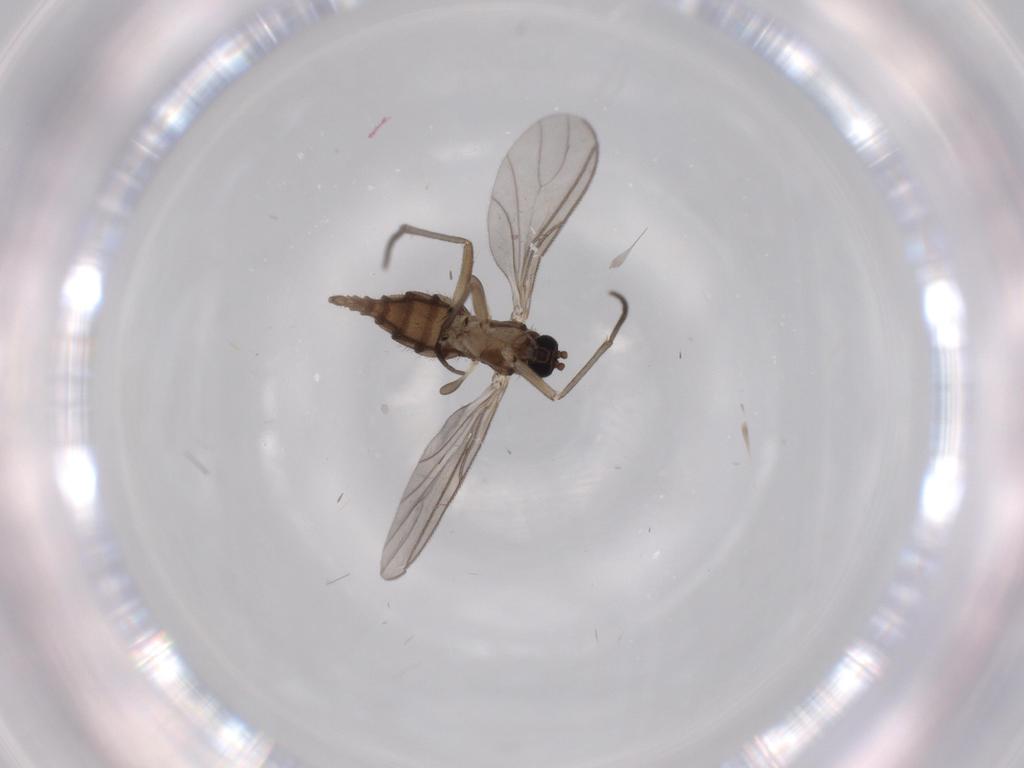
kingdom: Animalia
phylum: Arthropoda
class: Insecta
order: Diptera
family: Sciaridae
